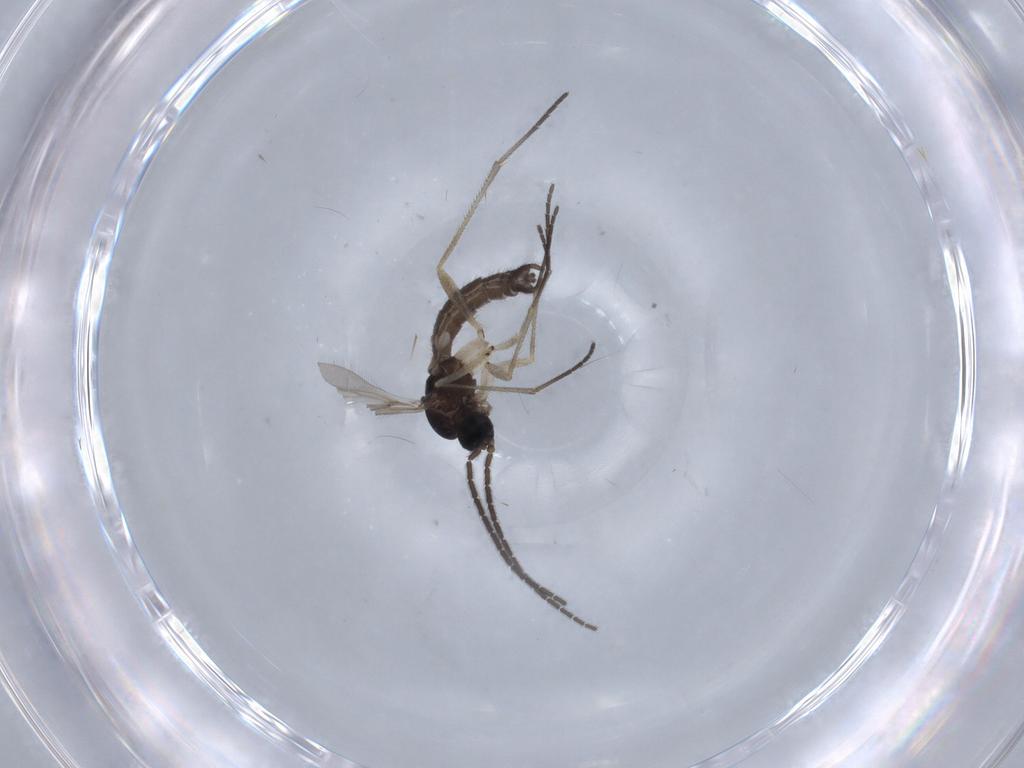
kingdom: Animalia
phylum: Arthropoda
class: Insecta
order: Diptera
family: Sciaridae
